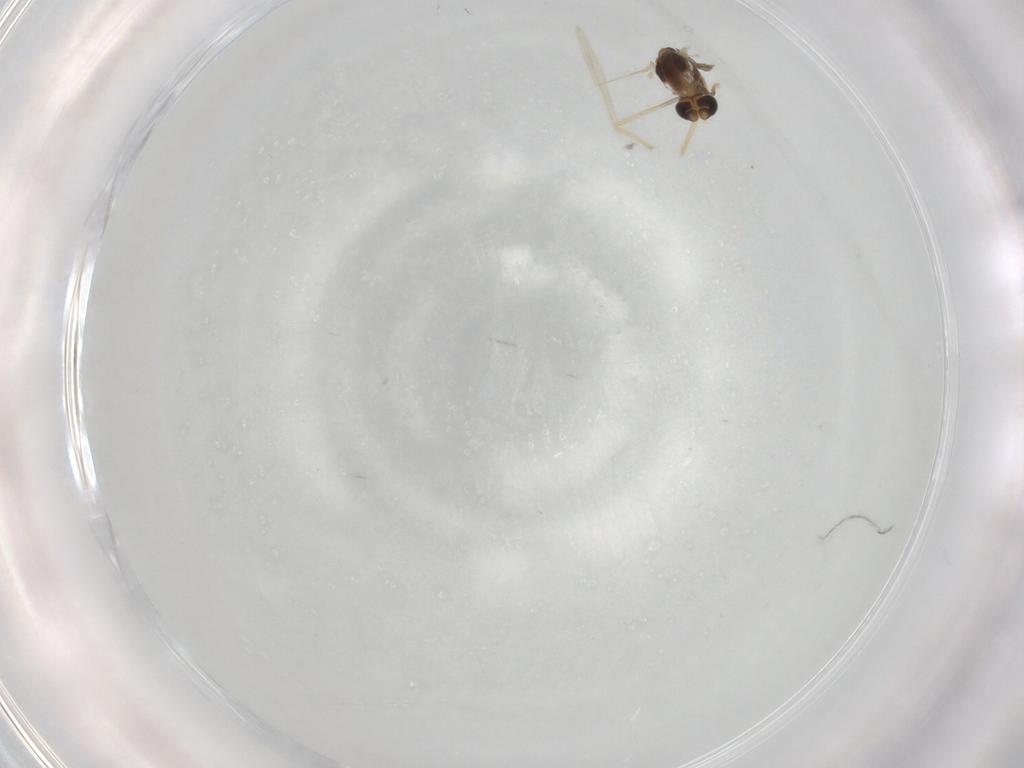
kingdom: Animalia
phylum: Arthropoda
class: Insecta
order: Diptera
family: Chironomidae
